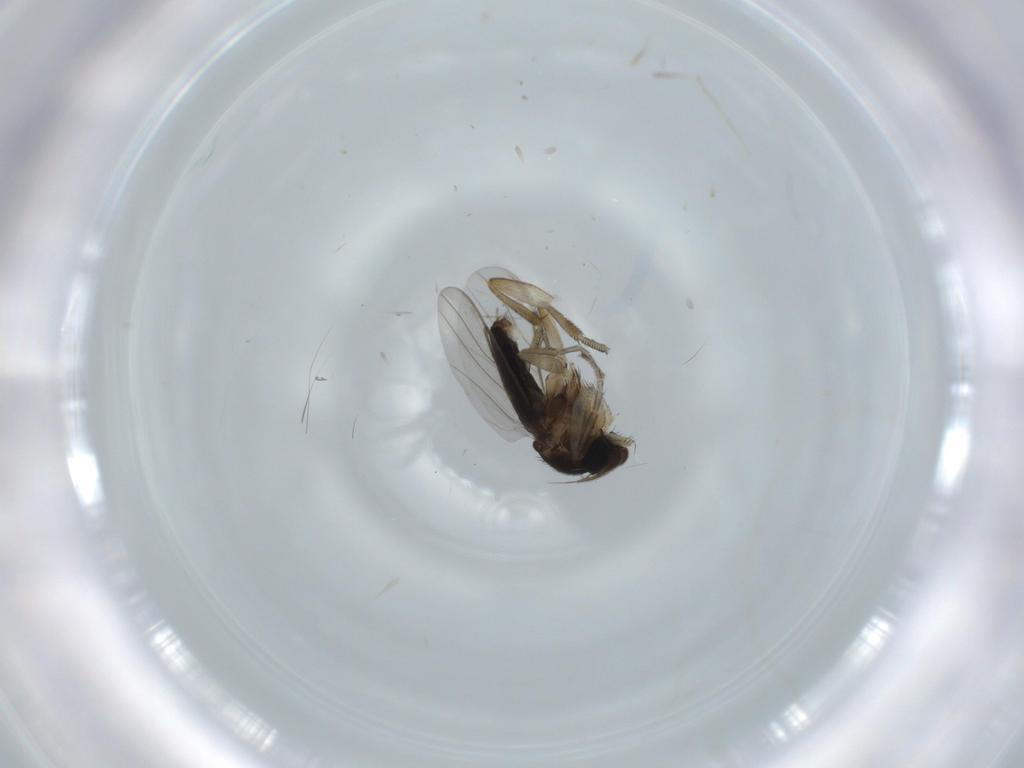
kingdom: Animalia
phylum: Arthropoda
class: Insecta
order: Diptera
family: Phoridae
